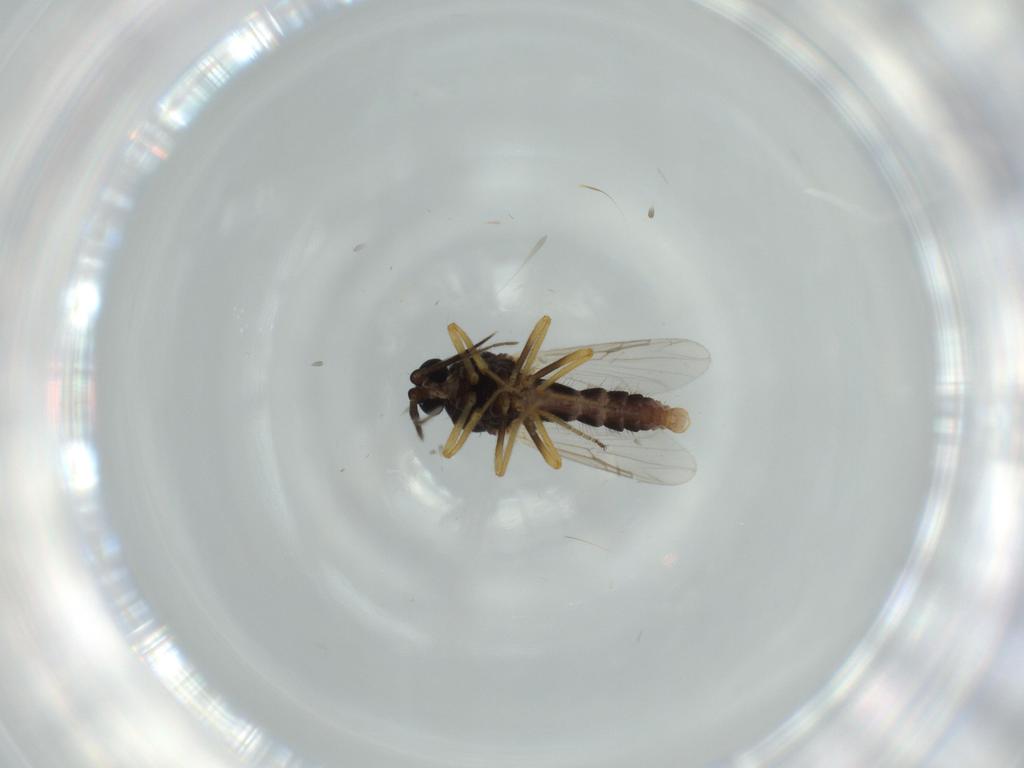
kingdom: Animalia
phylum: Arthropoda
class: Insecta
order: Diptera
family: Ceratopogonidae
